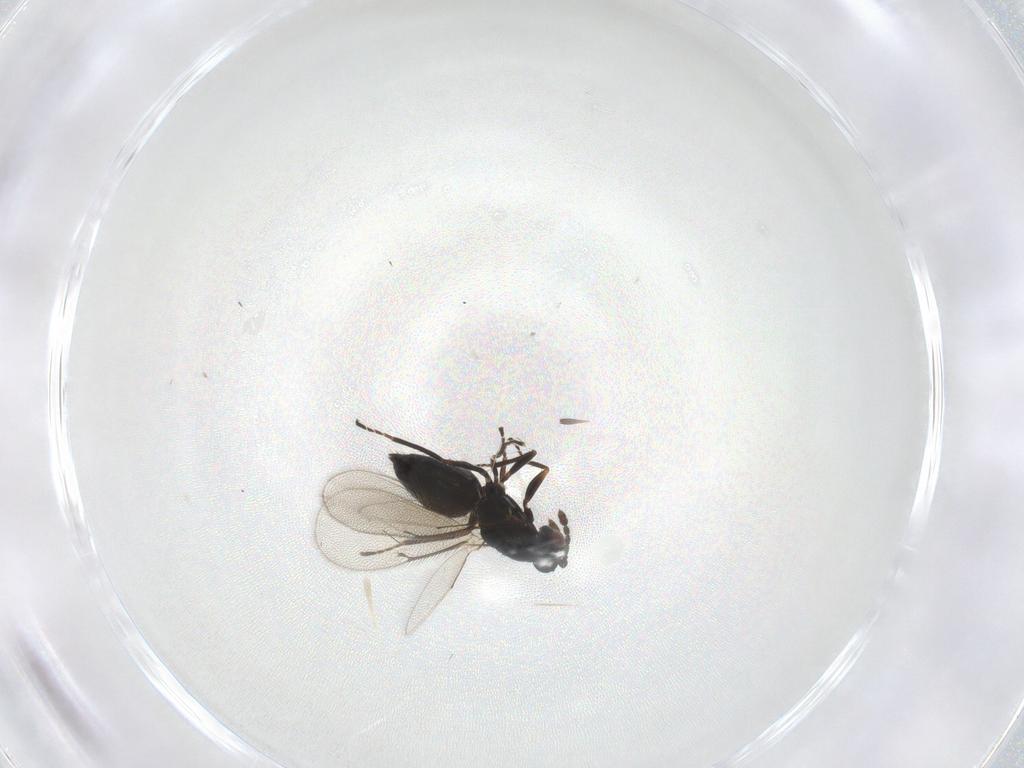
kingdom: Animalia
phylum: Arthropoda
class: Insecta
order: Hymenoptera
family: Eulophidae
